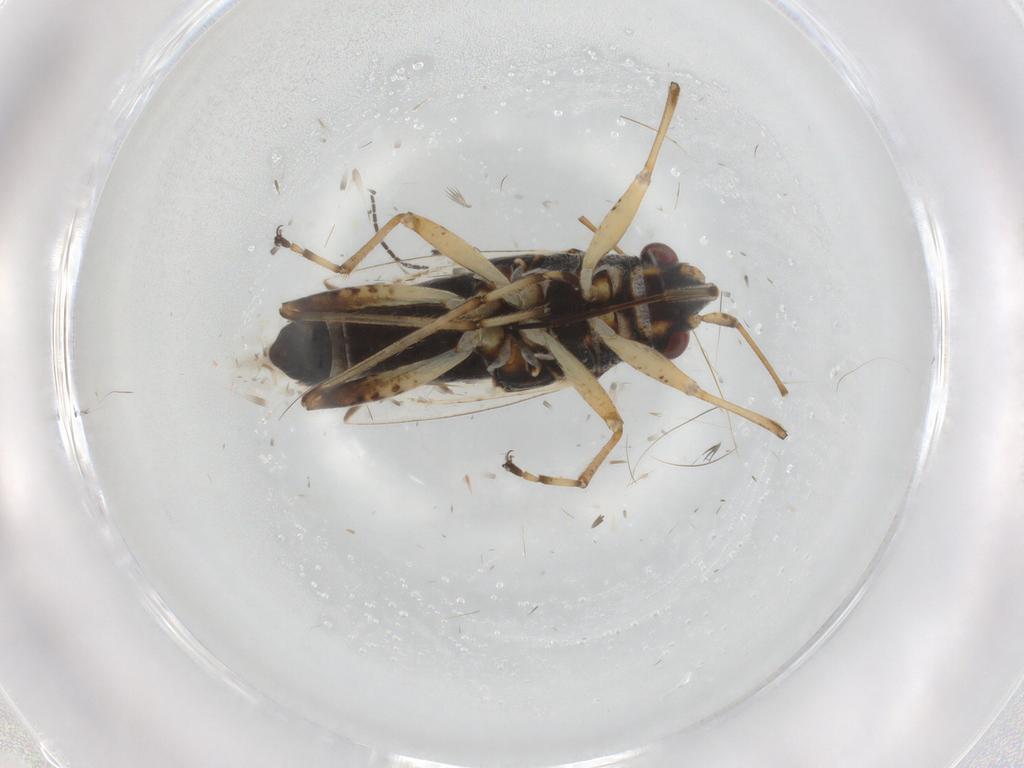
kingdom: Animalia
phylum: Arthropoda
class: Insecta
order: Hemiptera
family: Lygaeidae
